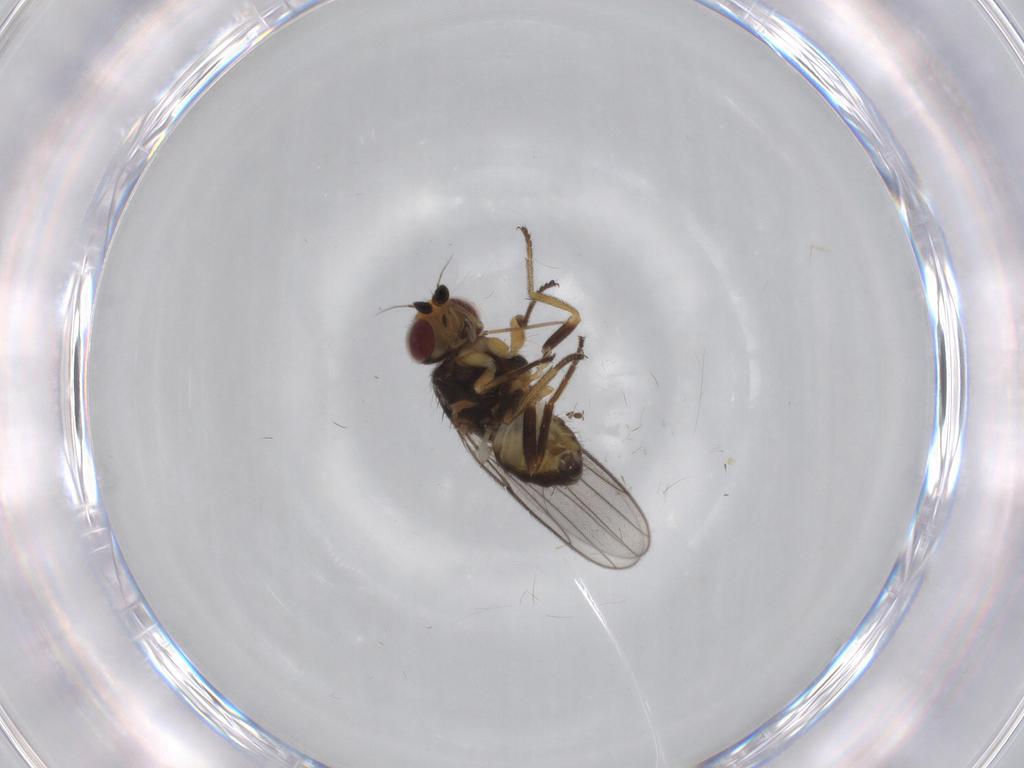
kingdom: Animalia
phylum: Arthropoda
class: Insecta
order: Diptera
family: Chloropidae
